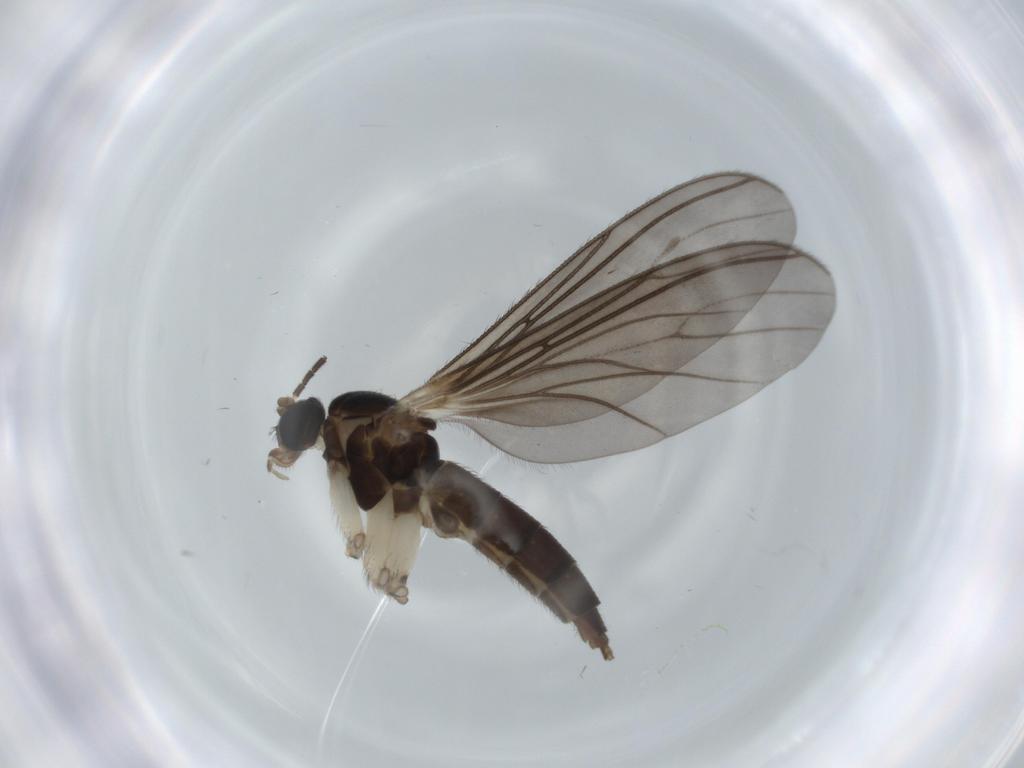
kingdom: Animalia
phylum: Arthropoda
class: Insecta
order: Diptera
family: Sciaridae
